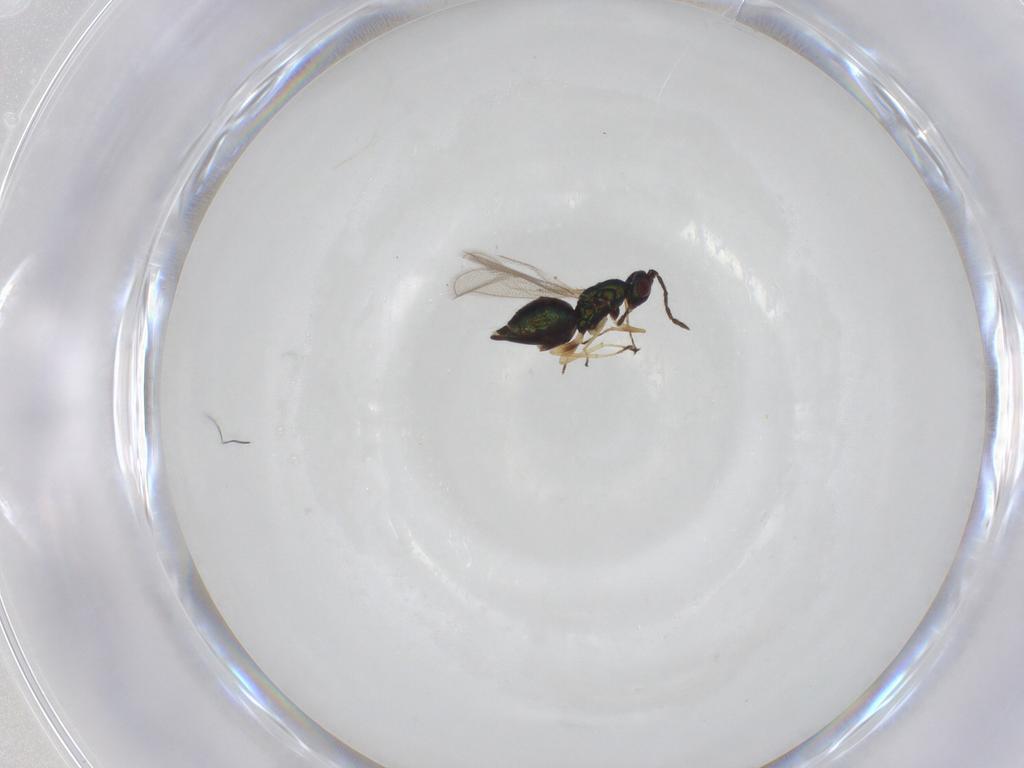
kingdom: Animalia
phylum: Arthropoda
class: Insecta
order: Hymenoptera
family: Eulophidae
